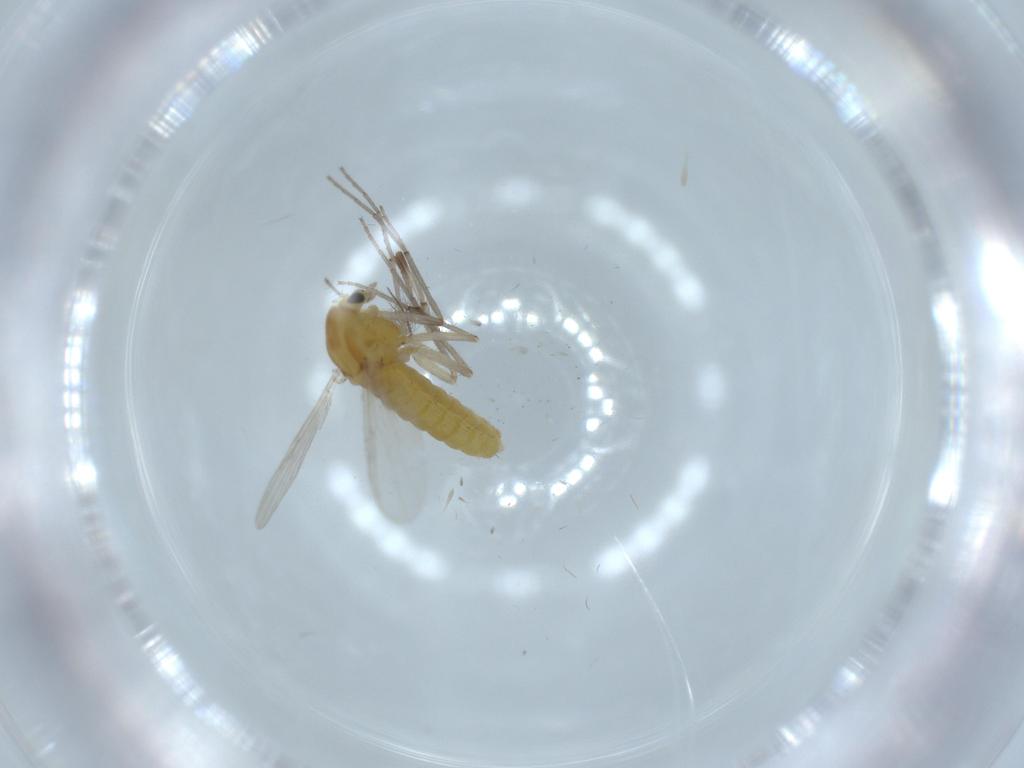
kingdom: Animalia
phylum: Arthropoda
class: Insecta
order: Diptera
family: Chironomidae
